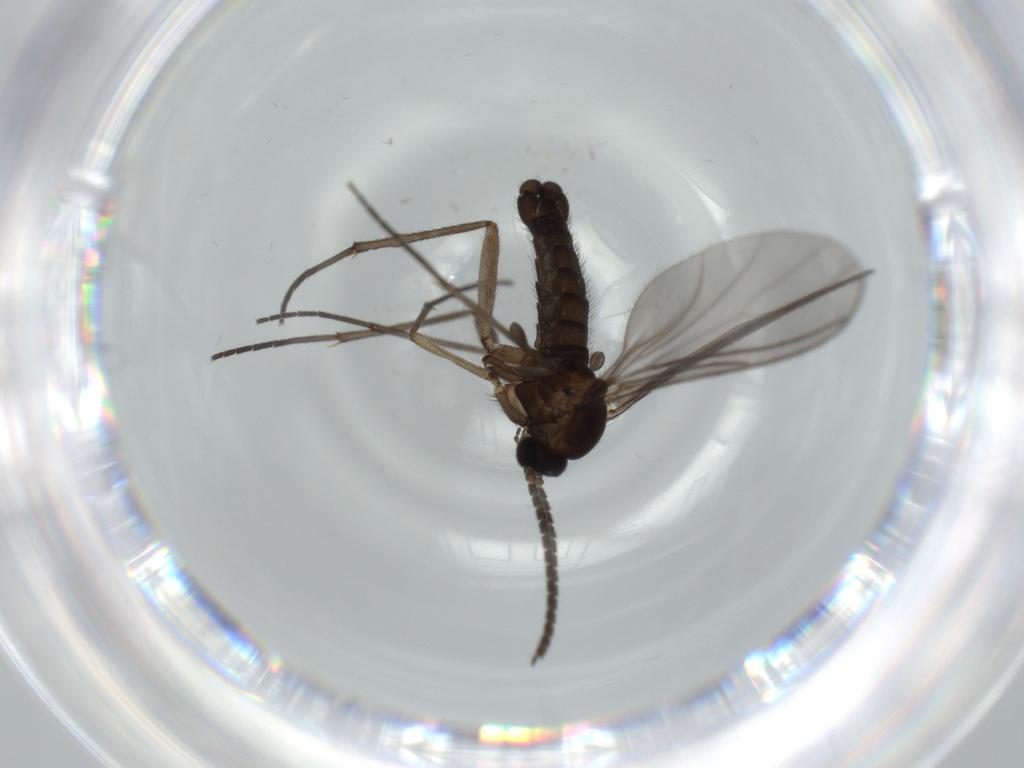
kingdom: Animalia
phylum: Arthropoda
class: Insecta
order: Diptera
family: Sciaridae
